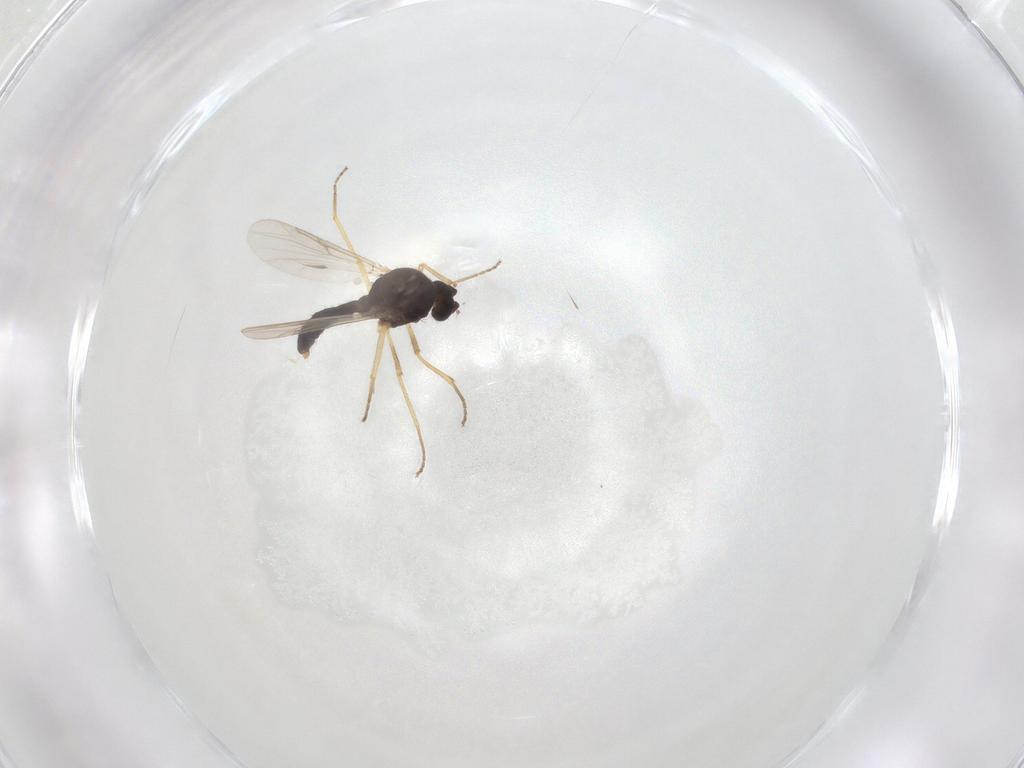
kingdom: Animalia
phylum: Arthropoda
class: Insecta
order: Diptera
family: Ceratopogonidae
